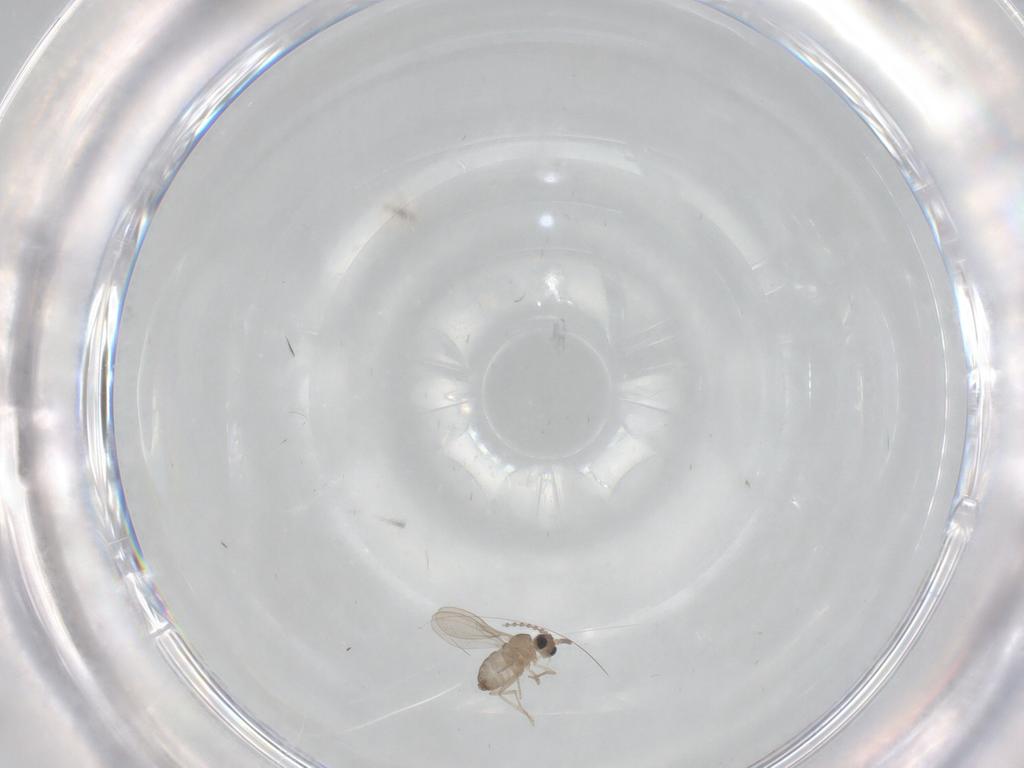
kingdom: Animalia
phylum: Arthropoda
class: Insecta
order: Diptera
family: Cecidomyiidae
